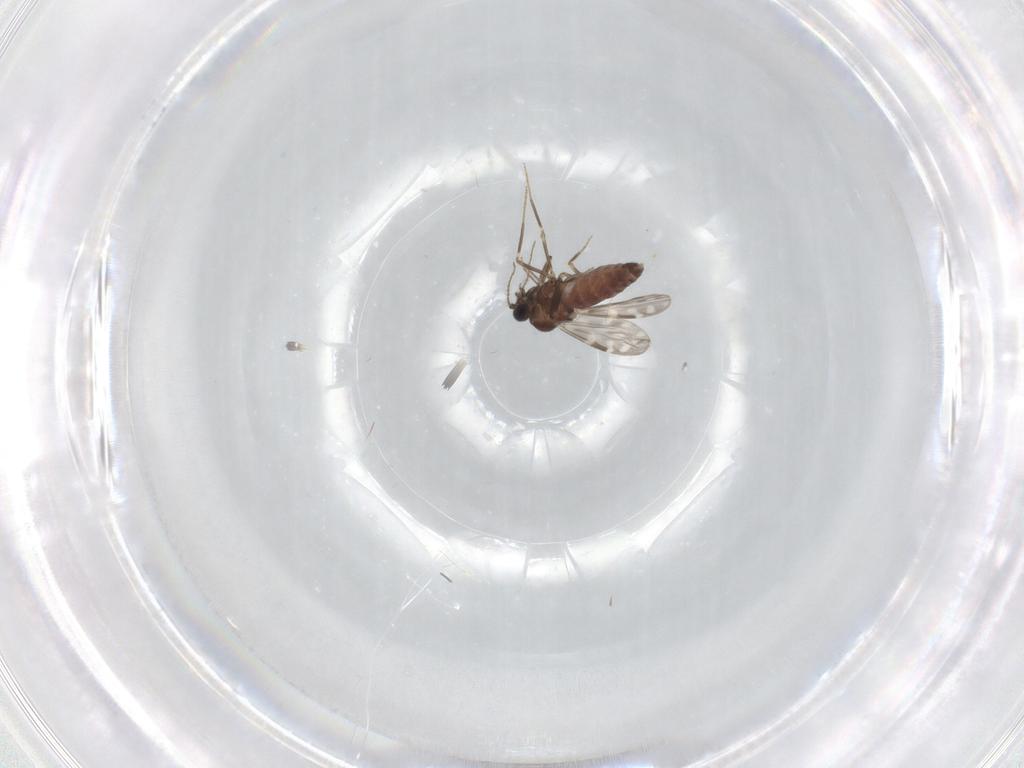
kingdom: Animalia
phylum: Arthropoda
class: Insecta
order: Diptera
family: Ceratopogonidae
